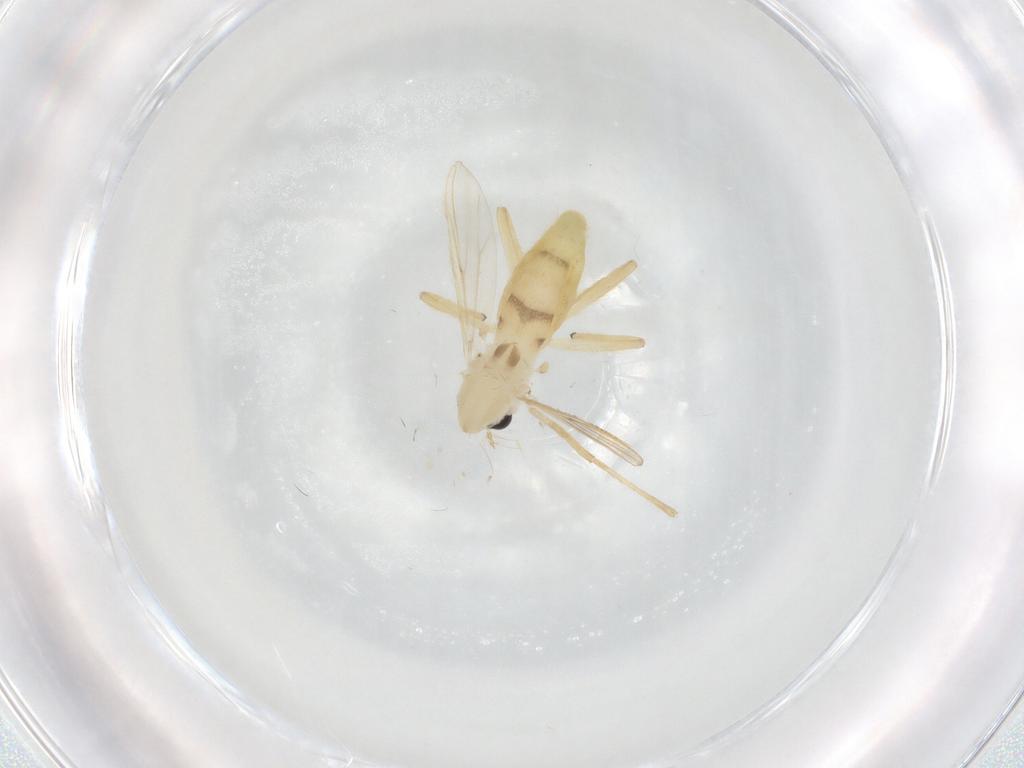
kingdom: Animalia
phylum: Arthropoda
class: Insecta
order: Diptera
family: Chironomidae
